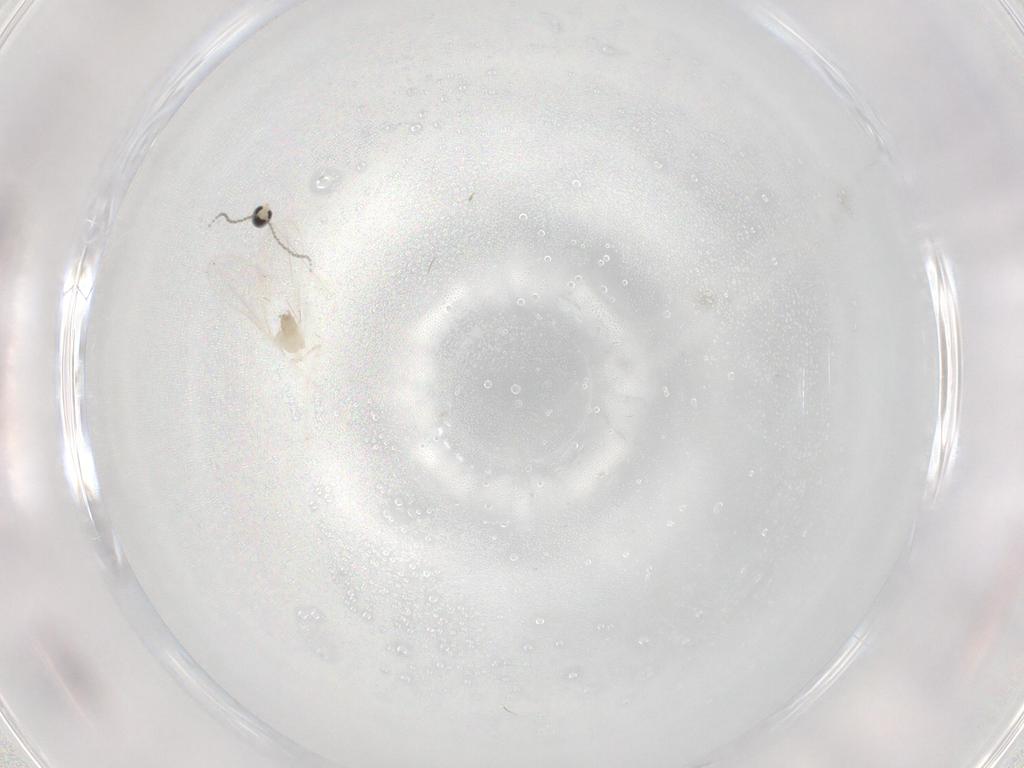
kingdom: Animalia
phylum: Arthropoda
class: Insecta
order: Diptera
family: Cecidomyiidae
